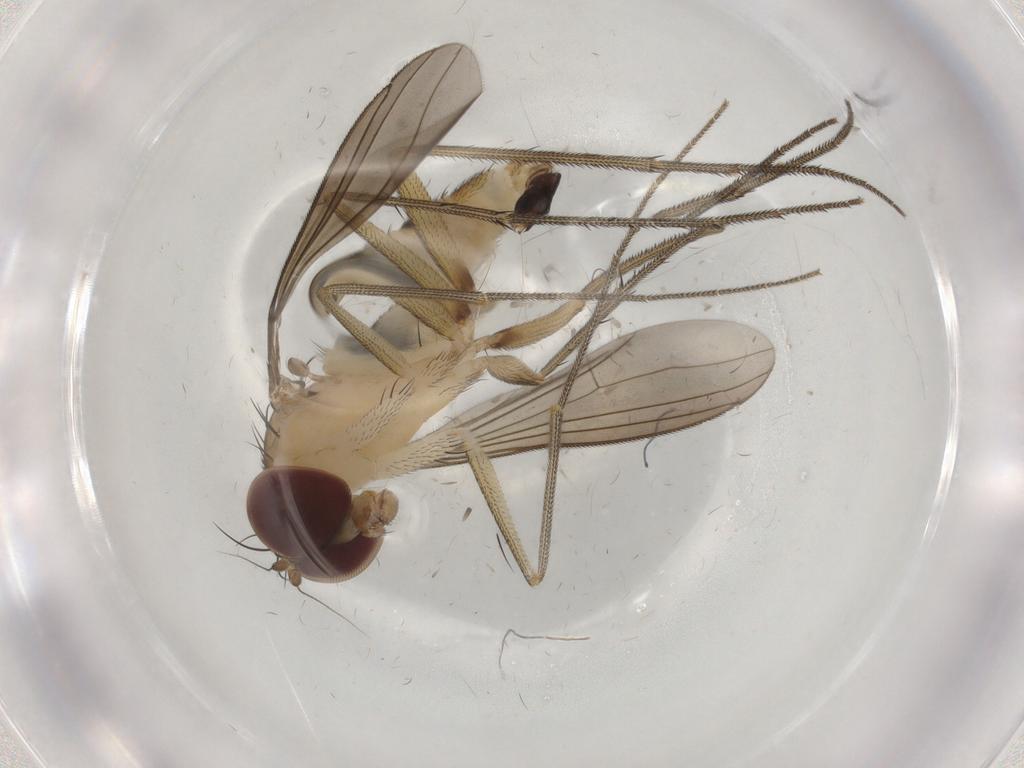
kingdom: Animalia
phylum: Arthropoda
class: Insecta
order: Diptera
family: Dolichopodidae
